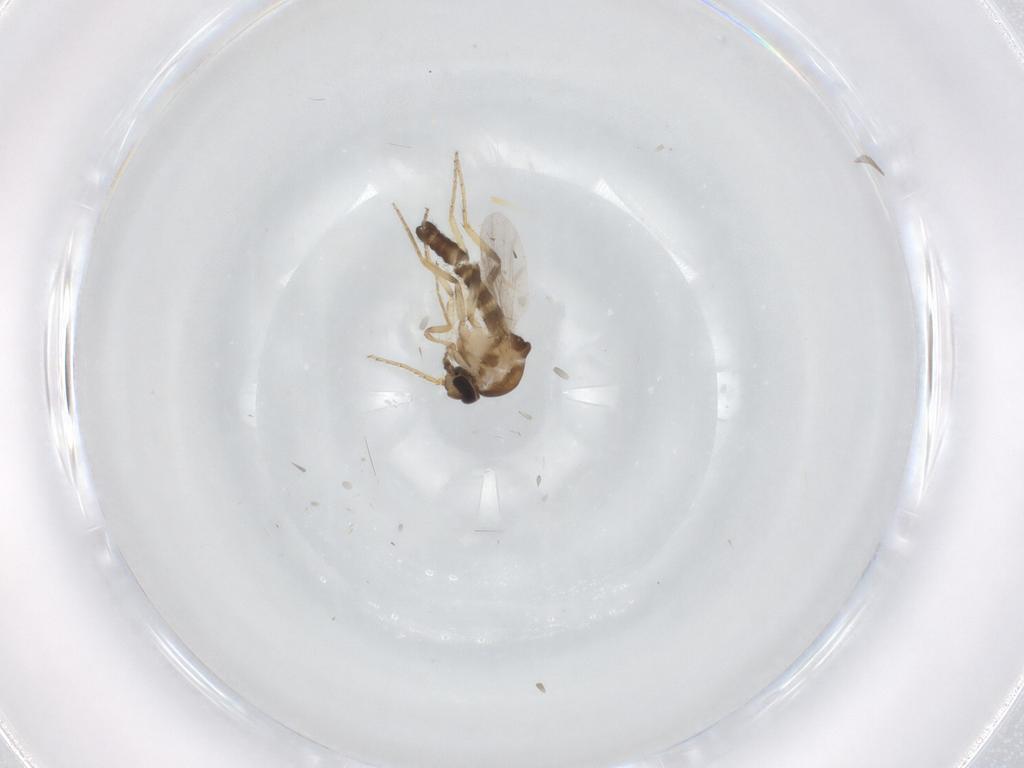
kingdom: Animalia
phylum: Arthropoda
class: Insecta
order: Diptera
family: Ceratopogonidae
